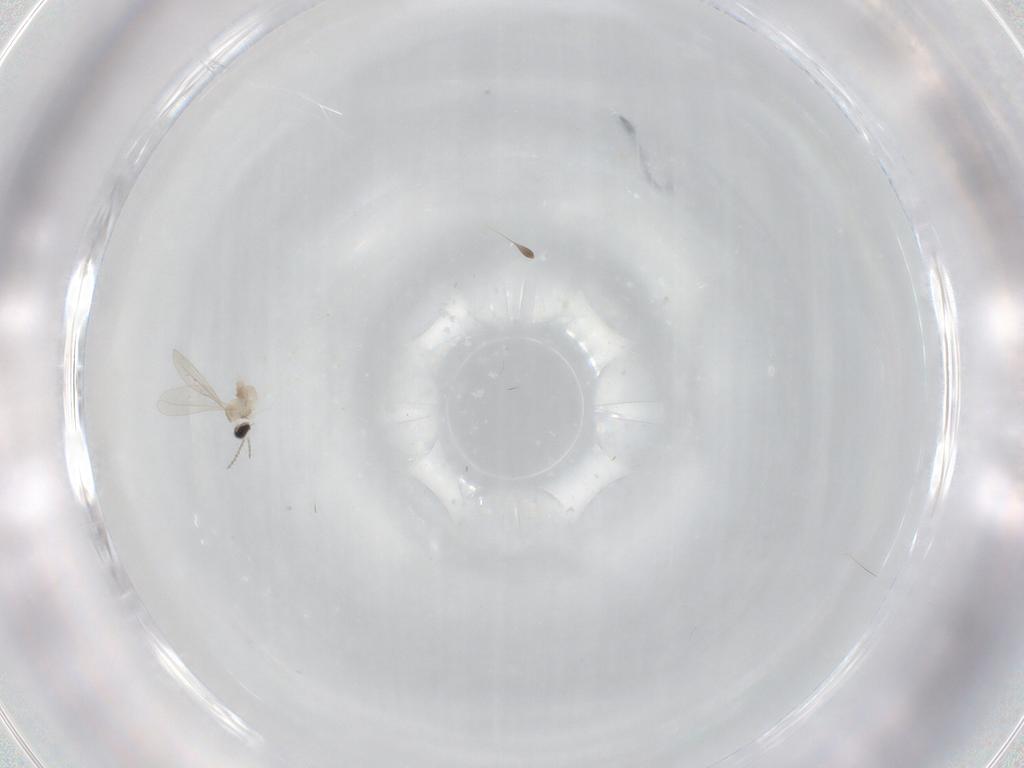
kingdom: Animalia
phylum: Arthropoda
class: Insecta
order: Diptera
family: Cecidomyiidae
